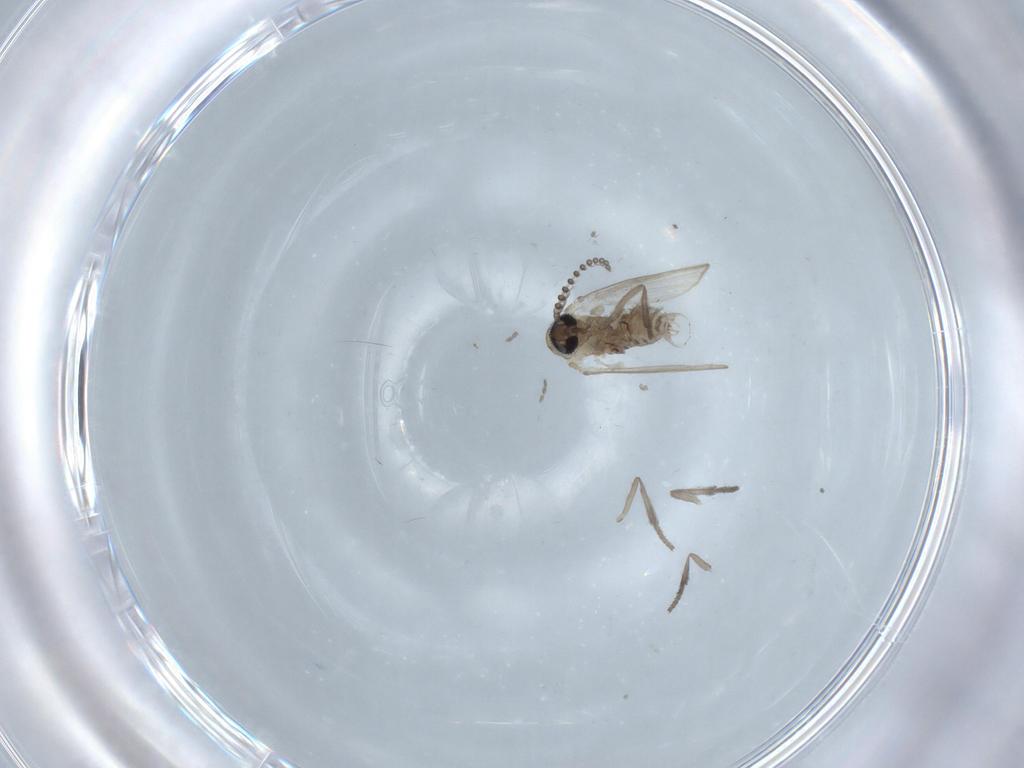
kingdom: Animalia
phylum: Arthropoda
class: Insecta
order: Diptera
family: Psychodidae
